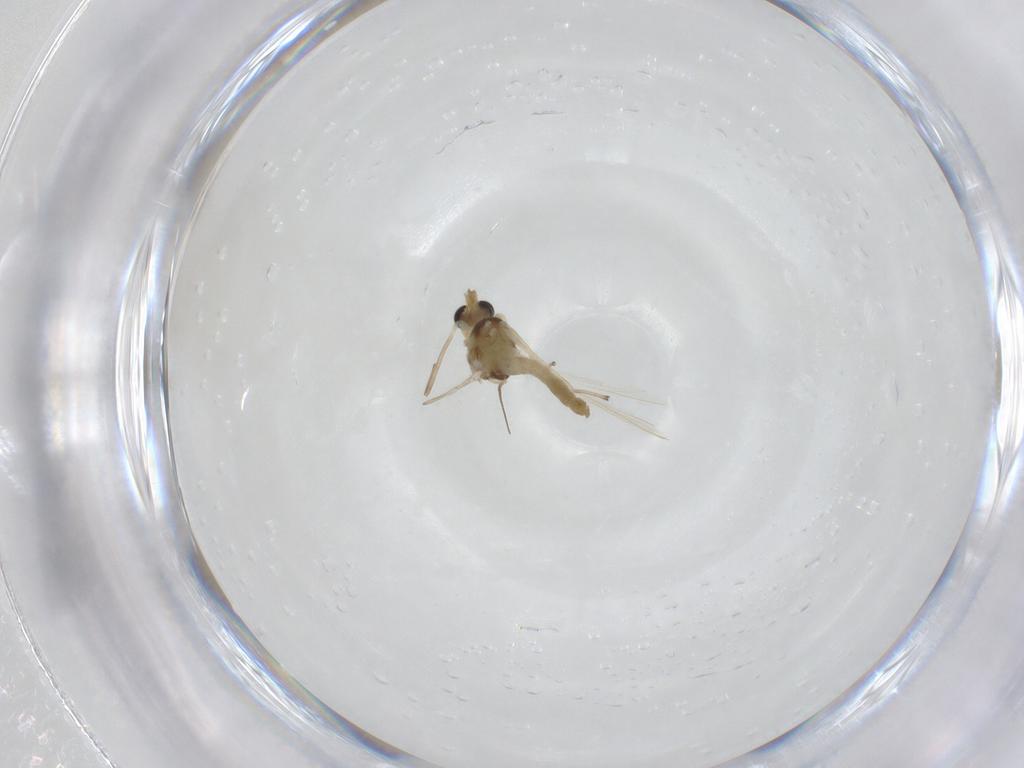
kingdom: Animalia
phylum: Arthropoda
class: Insecta
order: Diptera
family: Chironomidae
